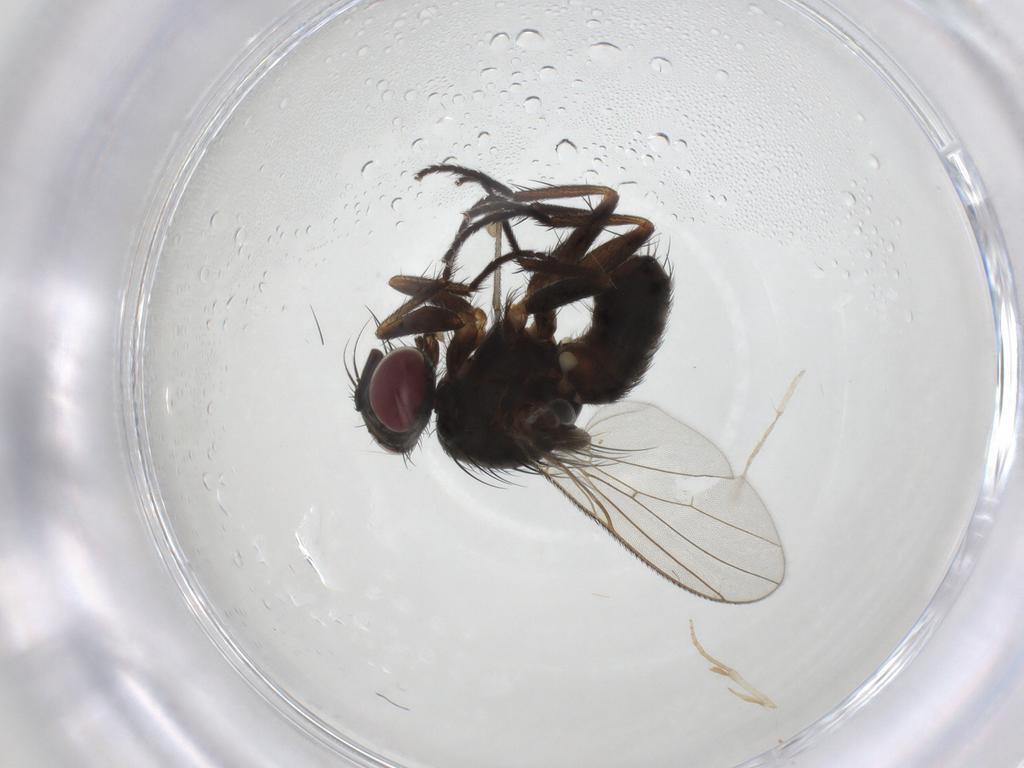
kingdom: Animalia
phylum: Arthropoda
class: Insecta
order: Diptera
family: Muscidae
